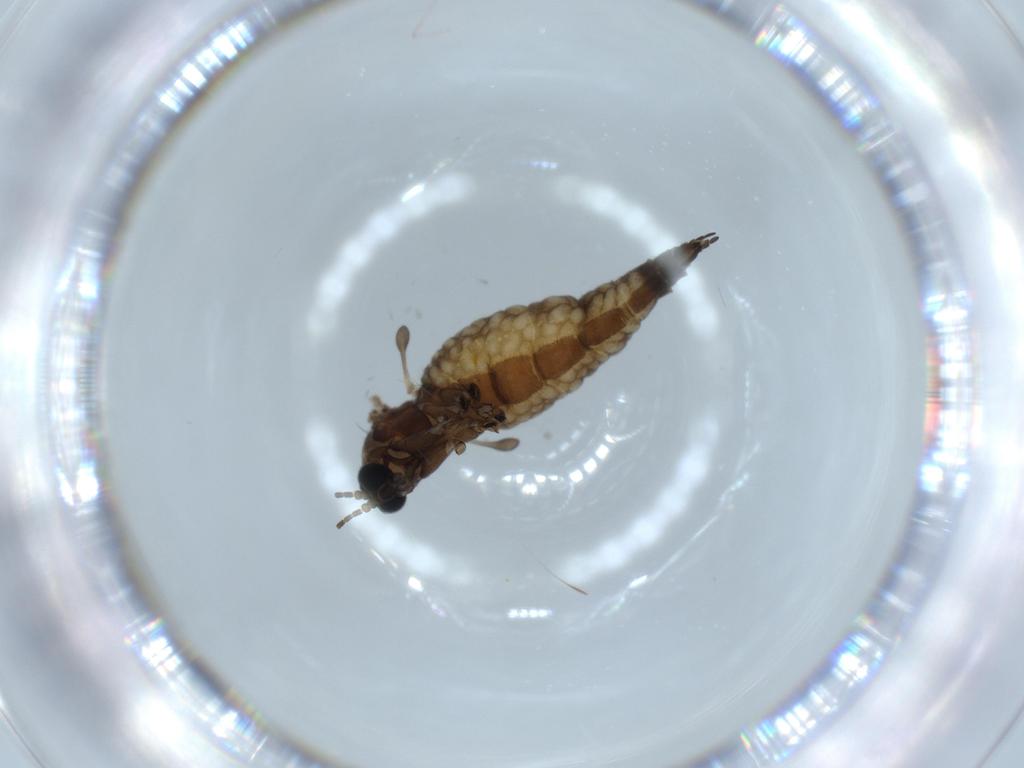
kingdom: Animalia
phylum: Arthropoda
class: Insecta
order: Diptera
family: Sciaridae
